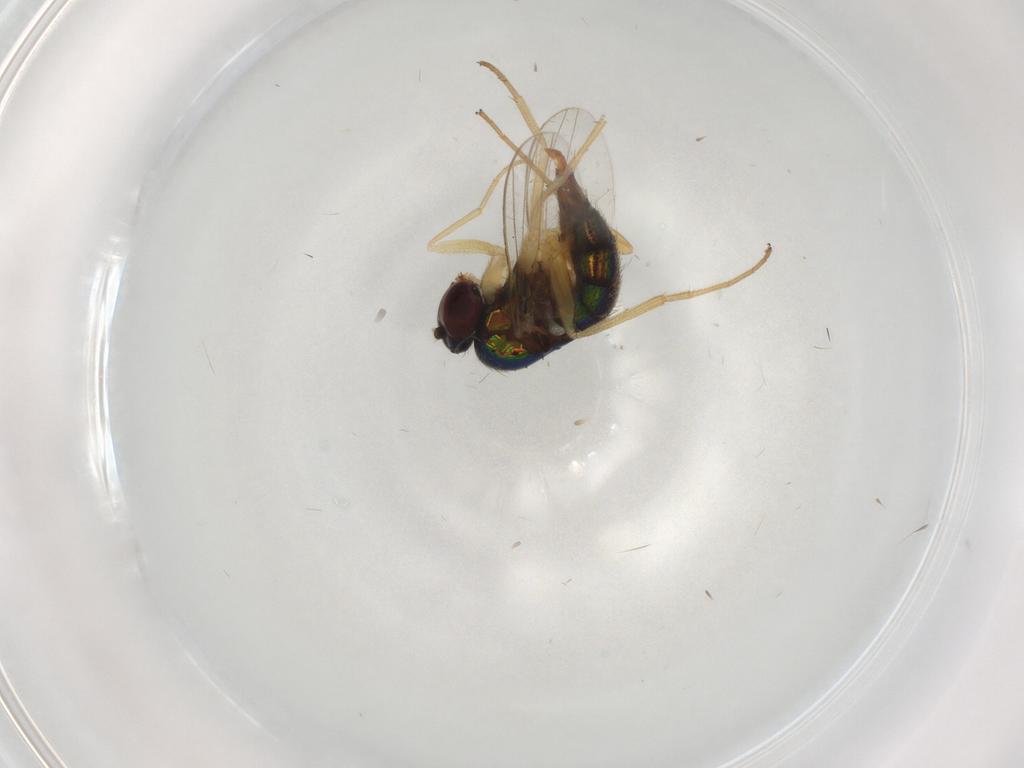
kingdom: Animalia
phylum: Arthropoda
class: Insecta
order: Diptera
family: Dolichopodidae
